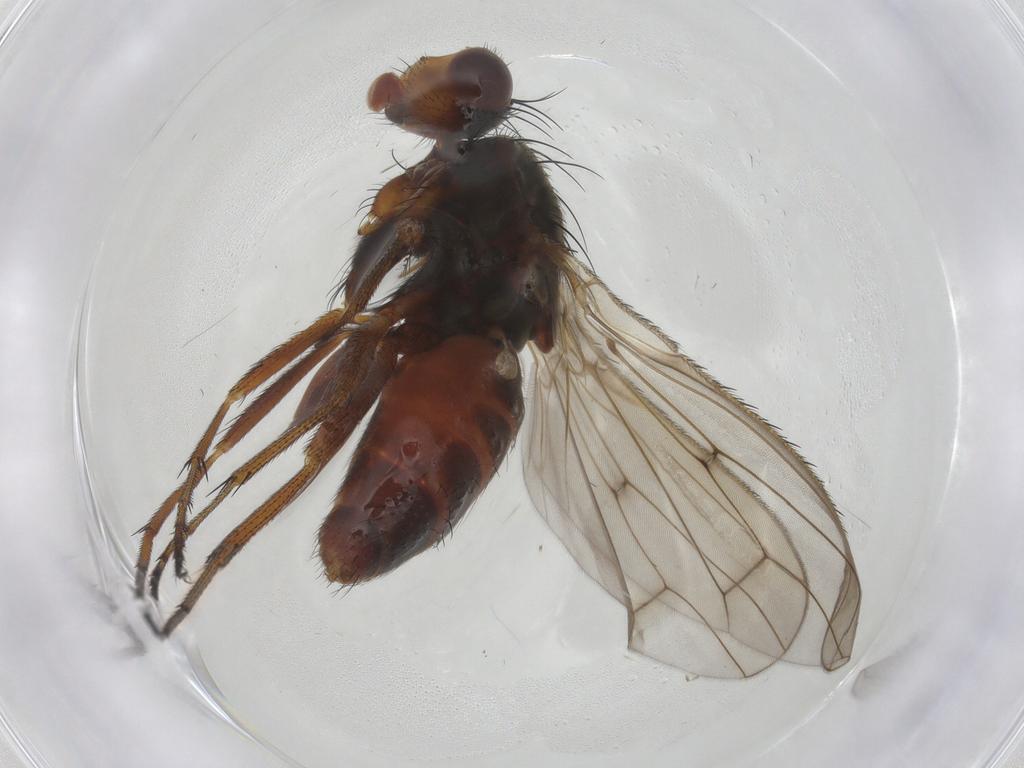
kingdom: Animalia
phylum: Arthropoda
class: Insecta
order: Diptera
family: Heleomyzidae
